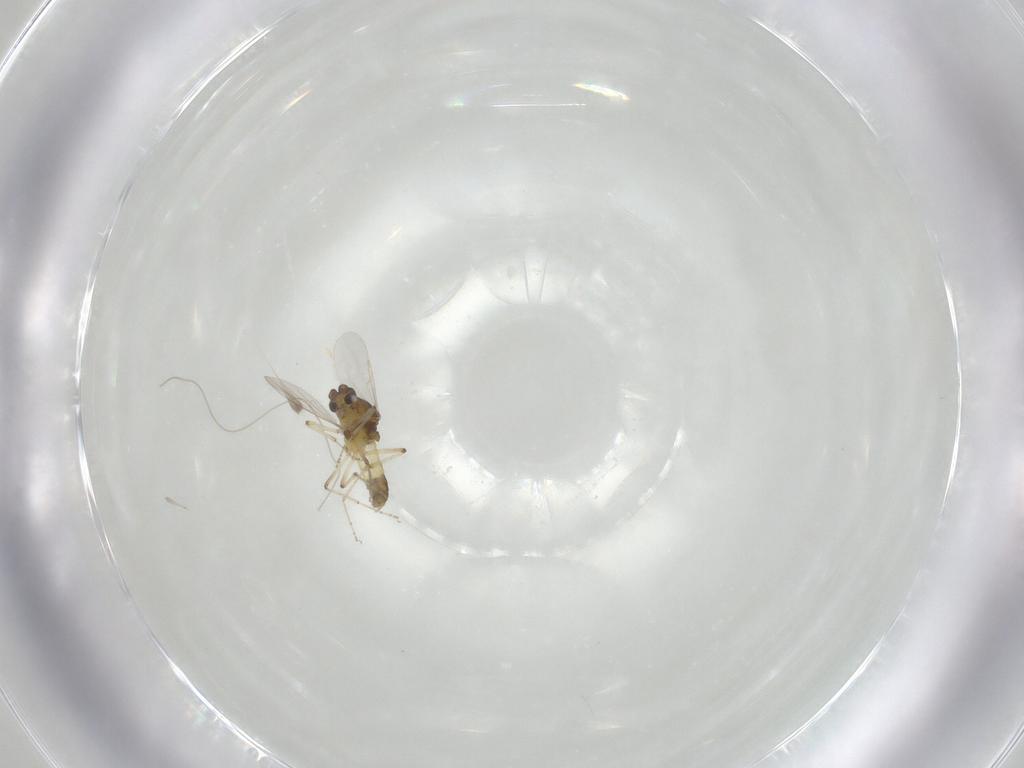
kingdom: Animalia
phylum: Arthropoda
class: Insecta
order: Diptera
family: Ceratopogonidae
